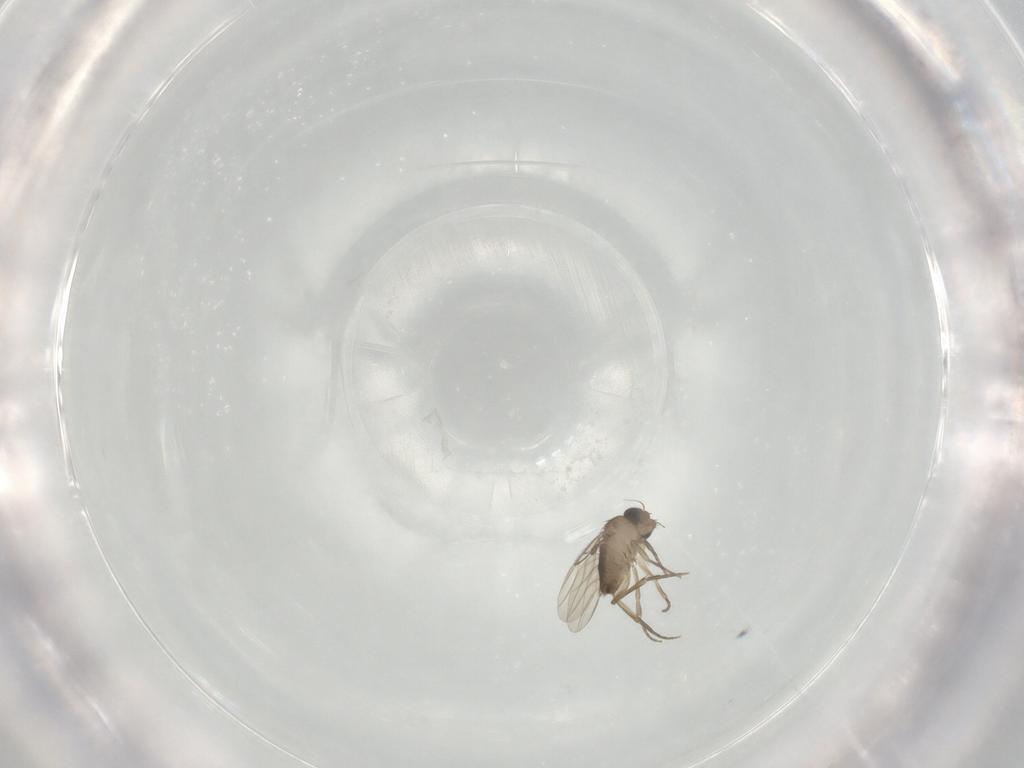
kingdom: Animalia
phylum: Arthropoda
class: Insecta
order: Diptera
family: Phoridae
